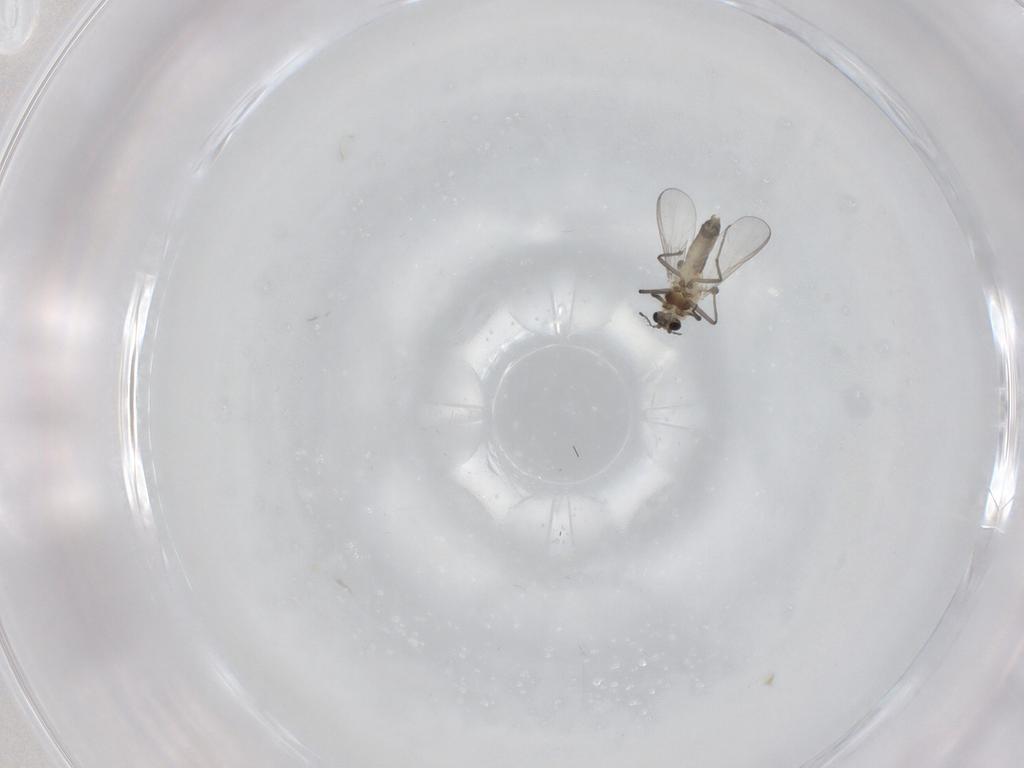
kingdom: Animalia
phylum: Arthropoda
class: Insecta
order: Diptera
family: Chironomidae
